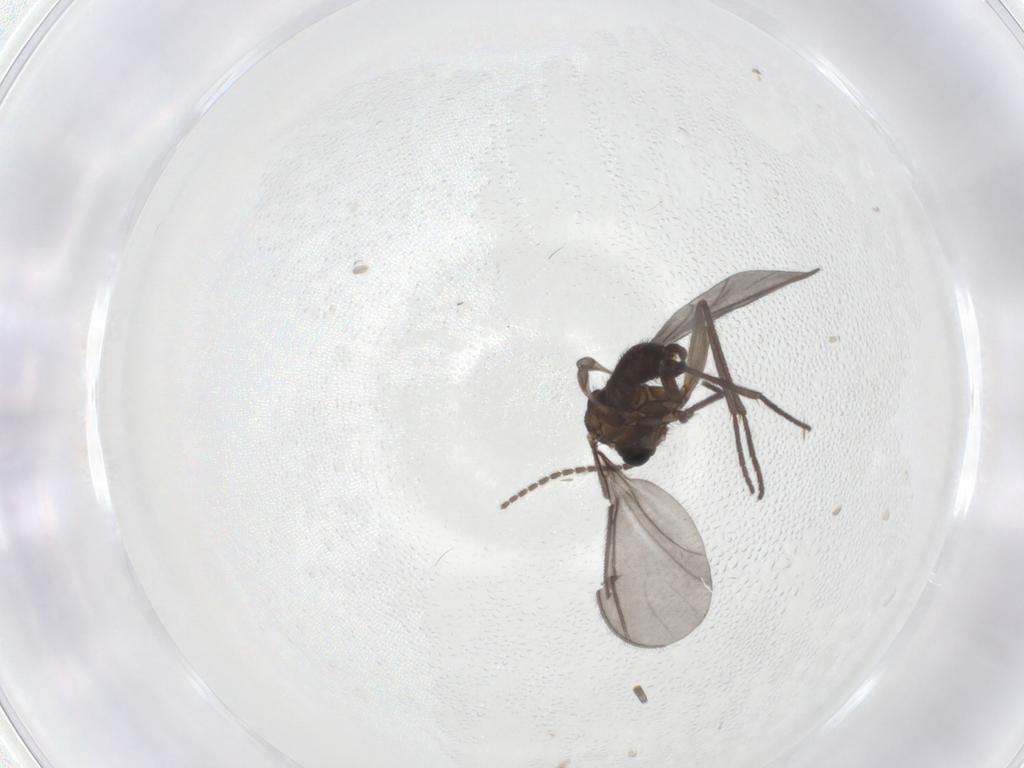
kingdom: Animalia
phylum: Arthropoda
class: Insecta
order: Diptera
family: Sciaridae
